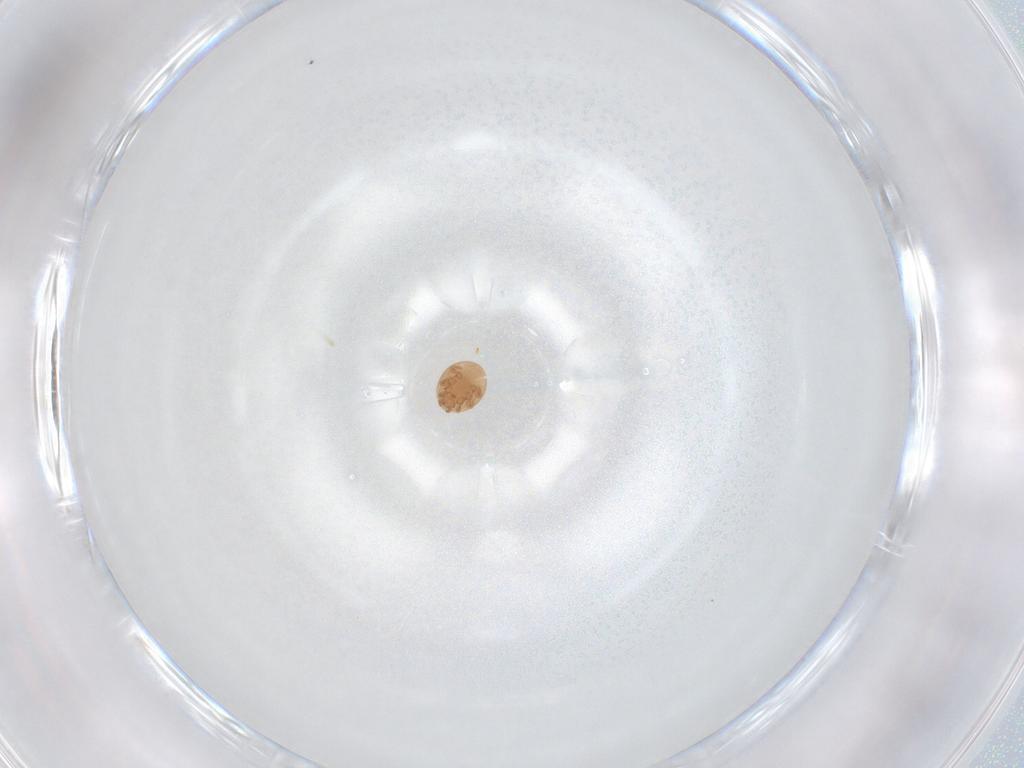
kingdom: Animalia
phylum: Arthropoda
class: Arachnida
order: Mesostigmata
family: Trematuridae
